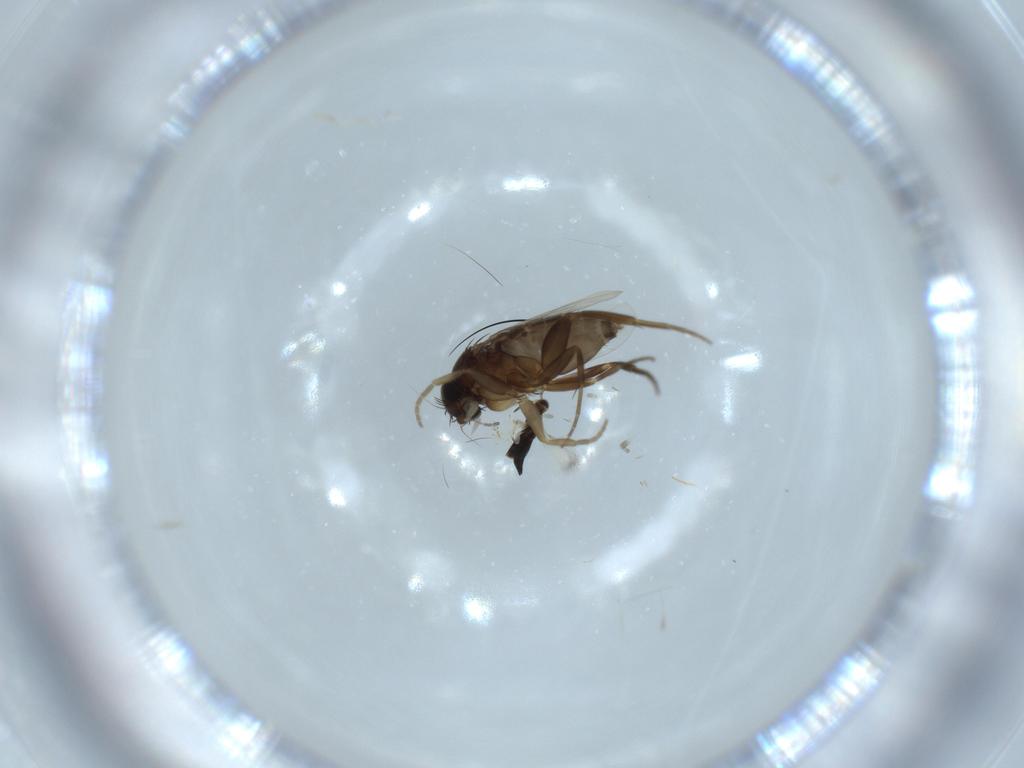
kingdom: Animalia
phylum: Arthropoda
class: Insecta
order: Diptera
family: Phoridae
